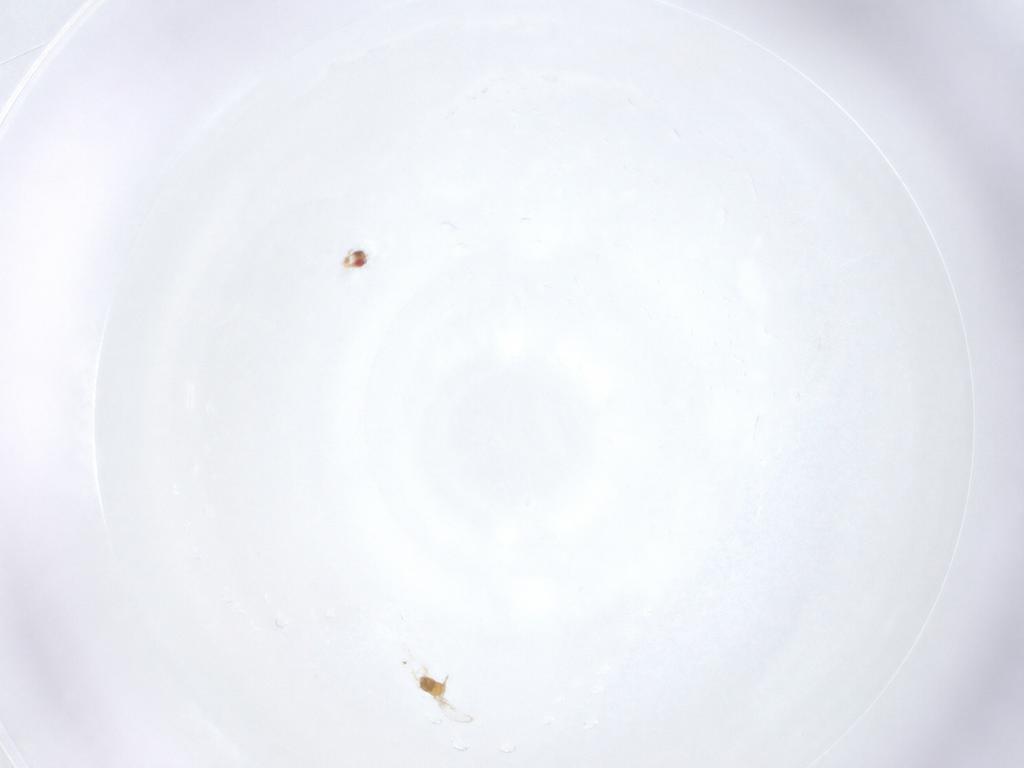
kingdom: Animalia
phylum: Arthropoda
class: Insecta
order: Hymenoptera
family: Trichogrammatidae
